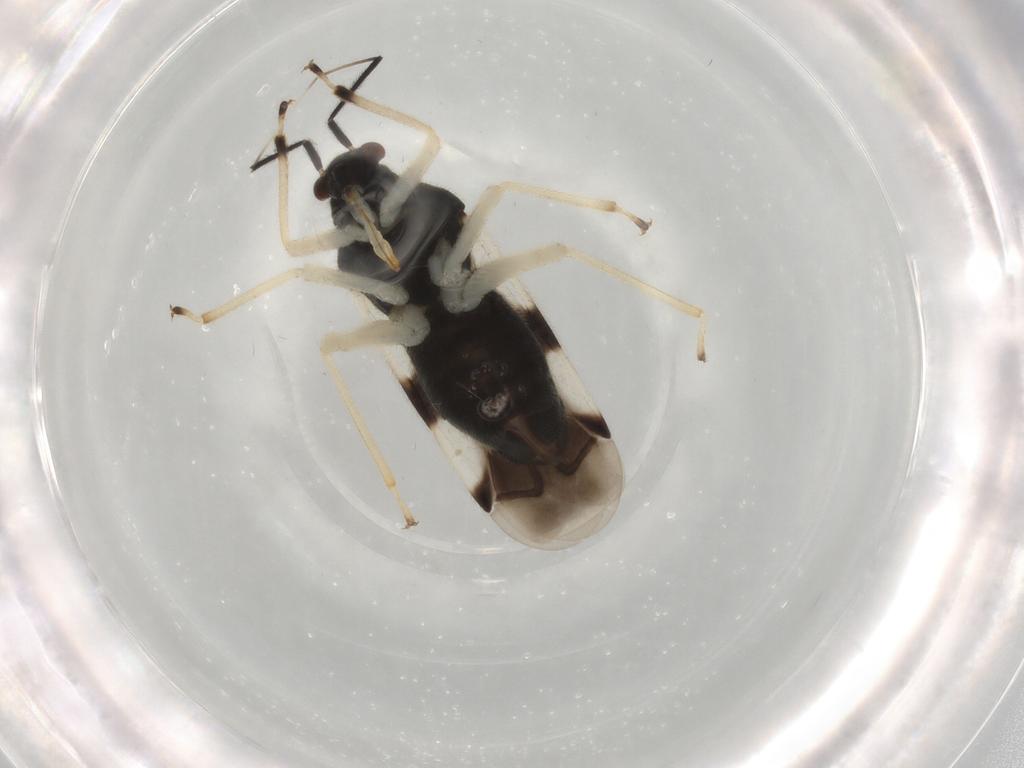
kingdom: Animalia
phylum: Arthropoda
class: Insecta
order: Hemiptera
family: Miridae
